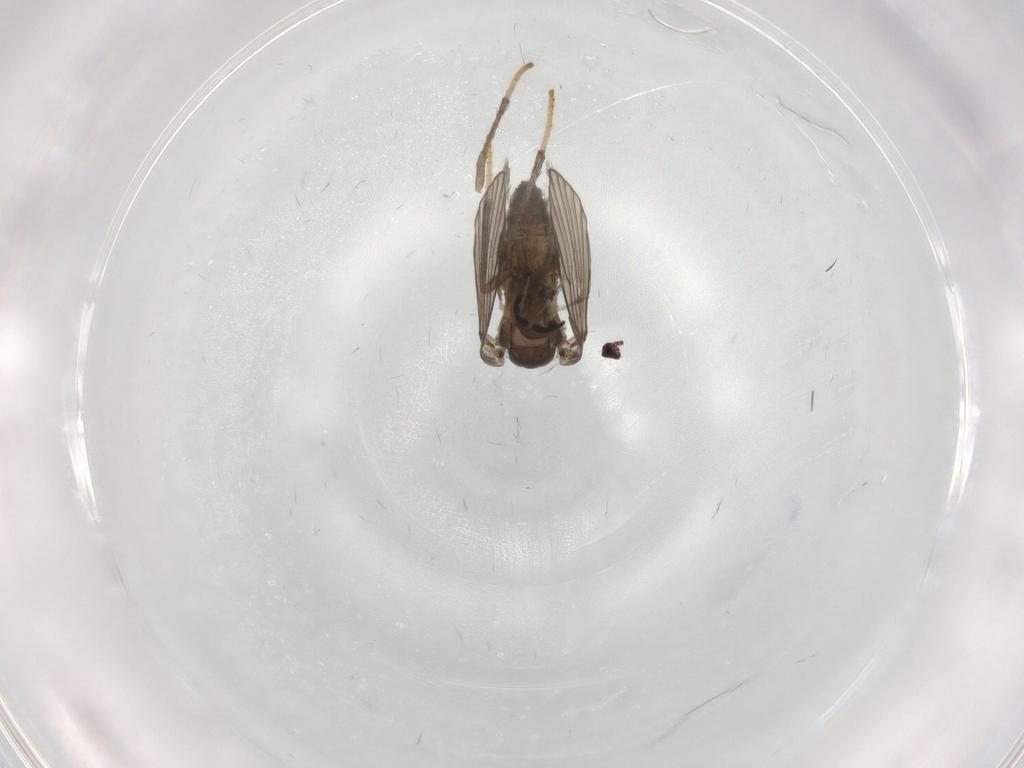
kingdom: Animalia
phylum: Arthropoda
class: Insecta
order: Diptera
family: Psychodidae
